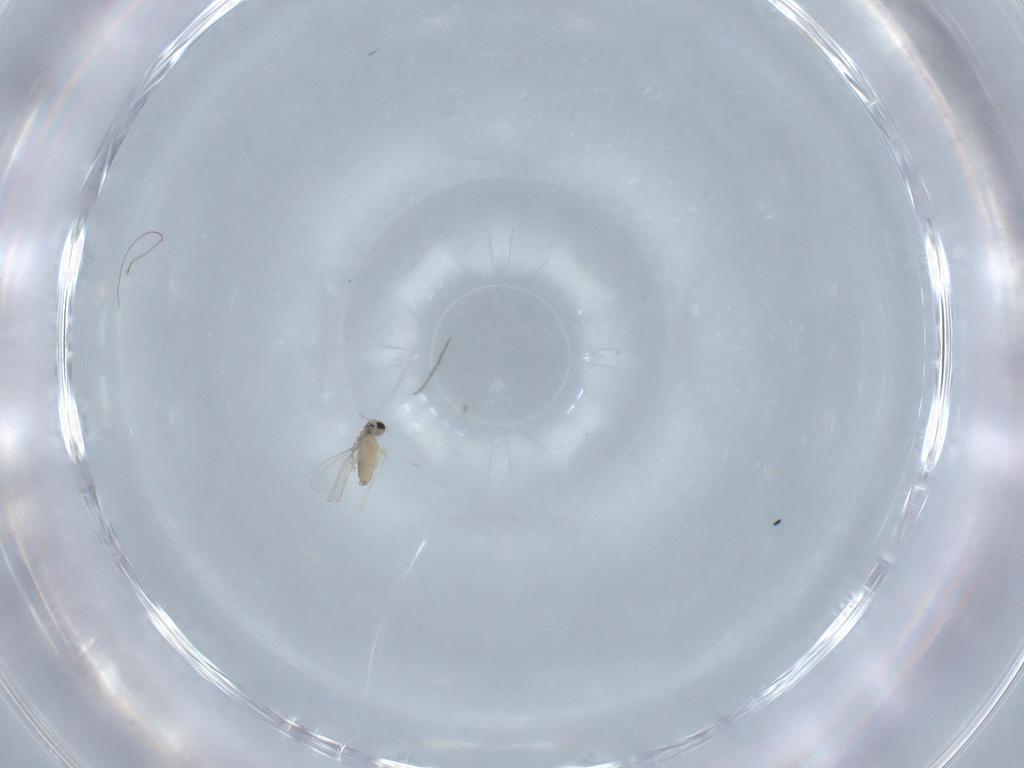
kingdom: Animalia
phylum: Arthropoda
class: Insecta
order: Diptera
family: Chironomidae
